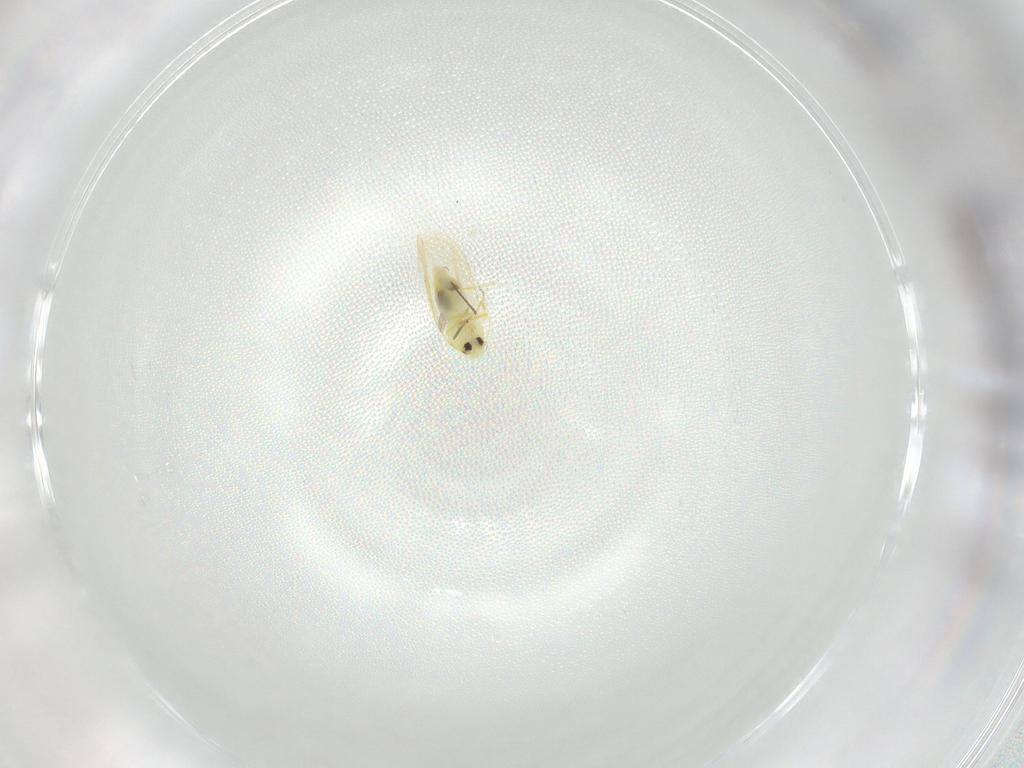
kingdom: Animalia
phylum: Arthropoda
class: Insecta
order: Hemiptera
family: Aleyrodidae
